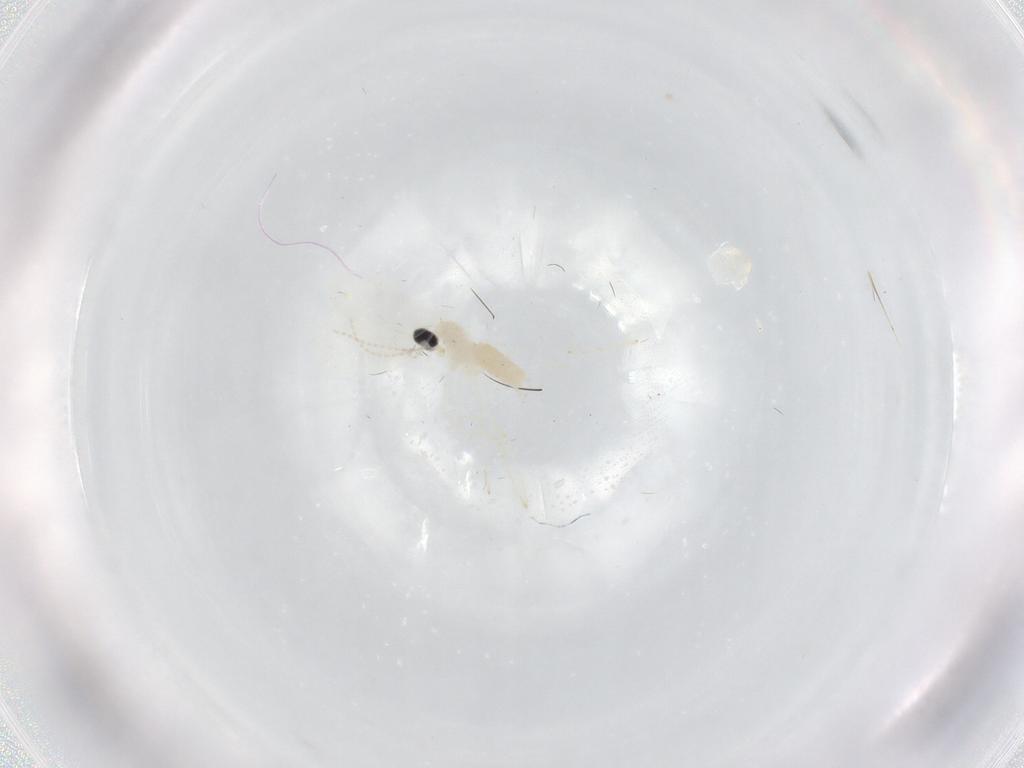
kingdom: Animalia
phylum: Arthropoda
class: Insecta
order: Diptera
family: Cecidomyiidae
